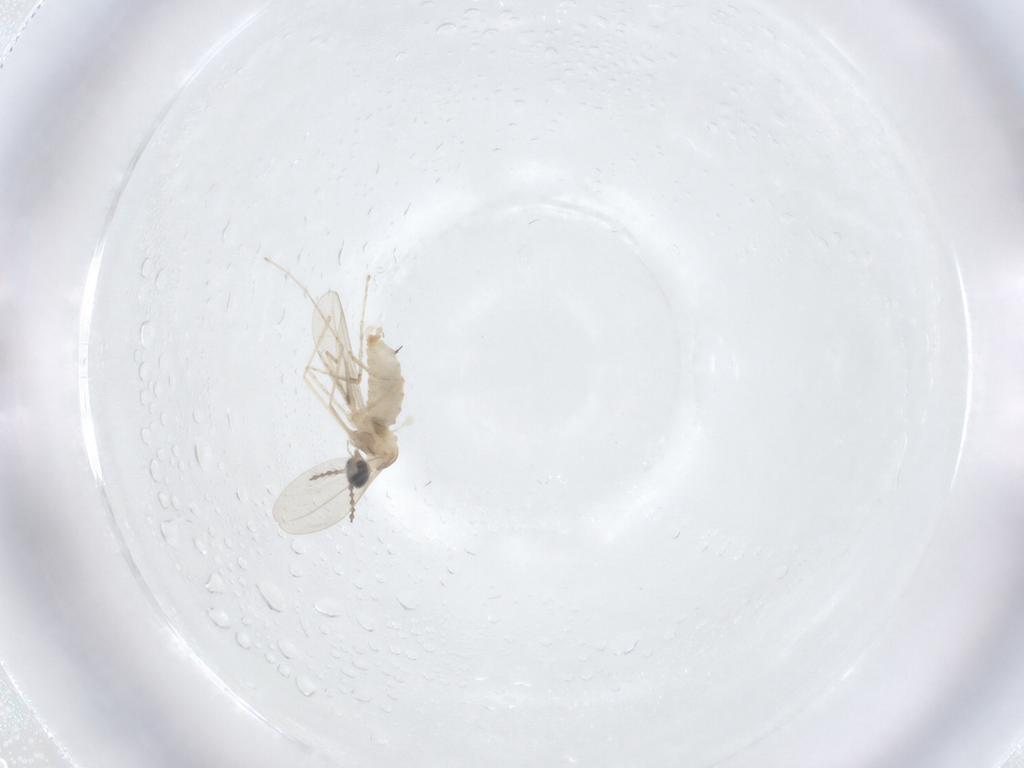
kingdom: Animalia
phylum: Arthropoda
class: Insecta
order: Diptera
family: Cecidomyiidae
